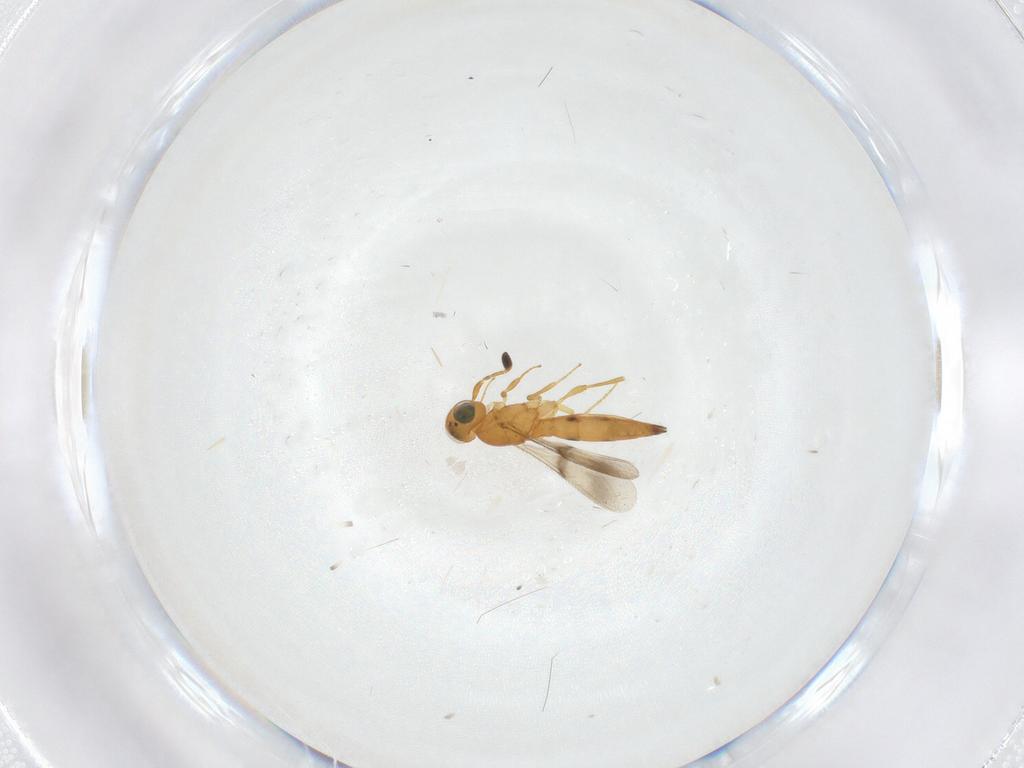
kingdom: Animalia
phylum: Arthropoda
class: Insecta
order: Hymenoptera
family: Scelionidae
